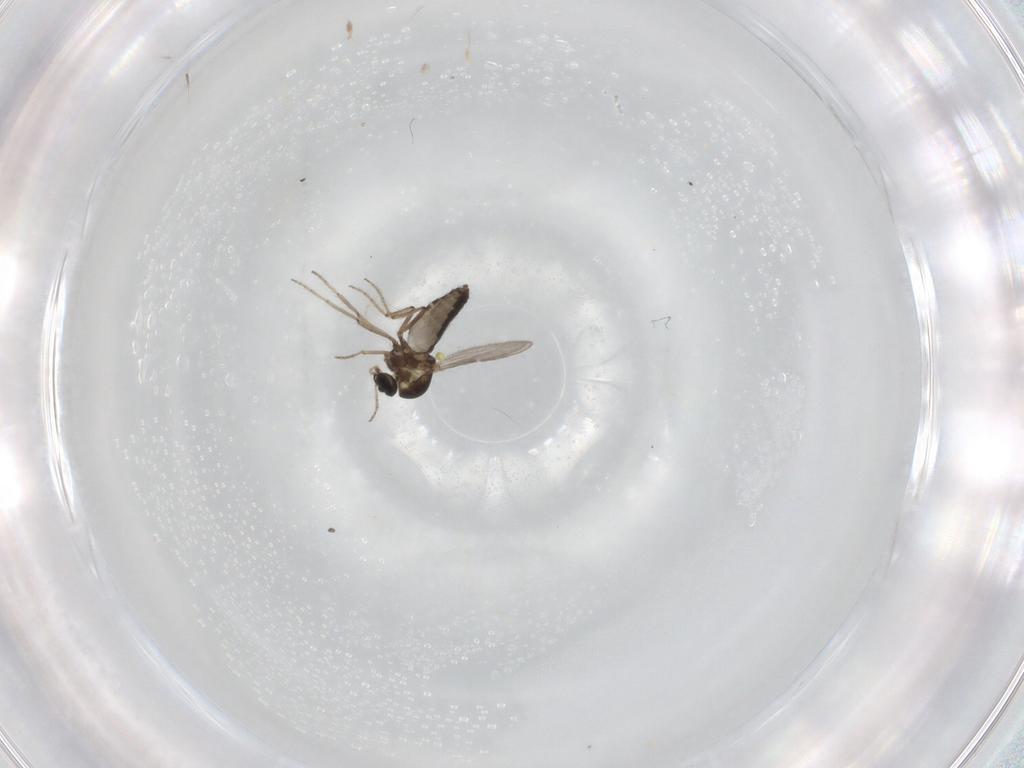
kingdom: Animalia
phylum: Arthropoda
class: Insecta
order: Diptera
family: Ceratopogonidae
